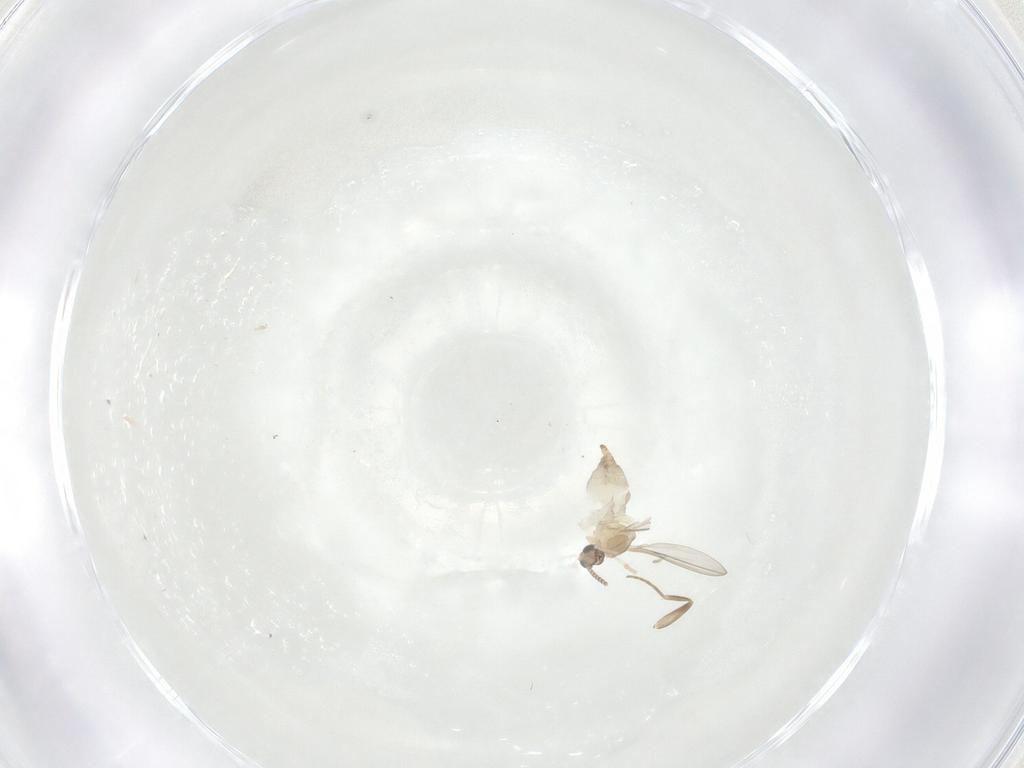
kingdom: Animalia
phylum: Arthropoda
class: Insecta
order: Diptera
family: Cecidomyiidae
